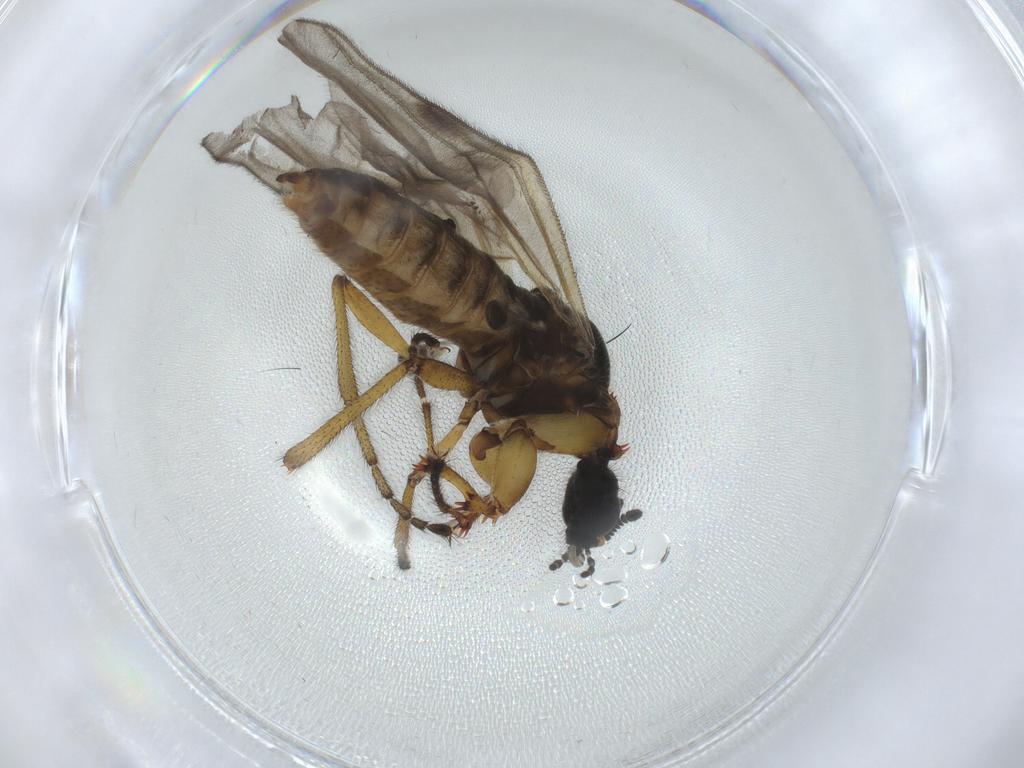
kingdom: Animalia
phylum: Arthropoda
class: Insecta
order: Diptera
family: Bibionidae
